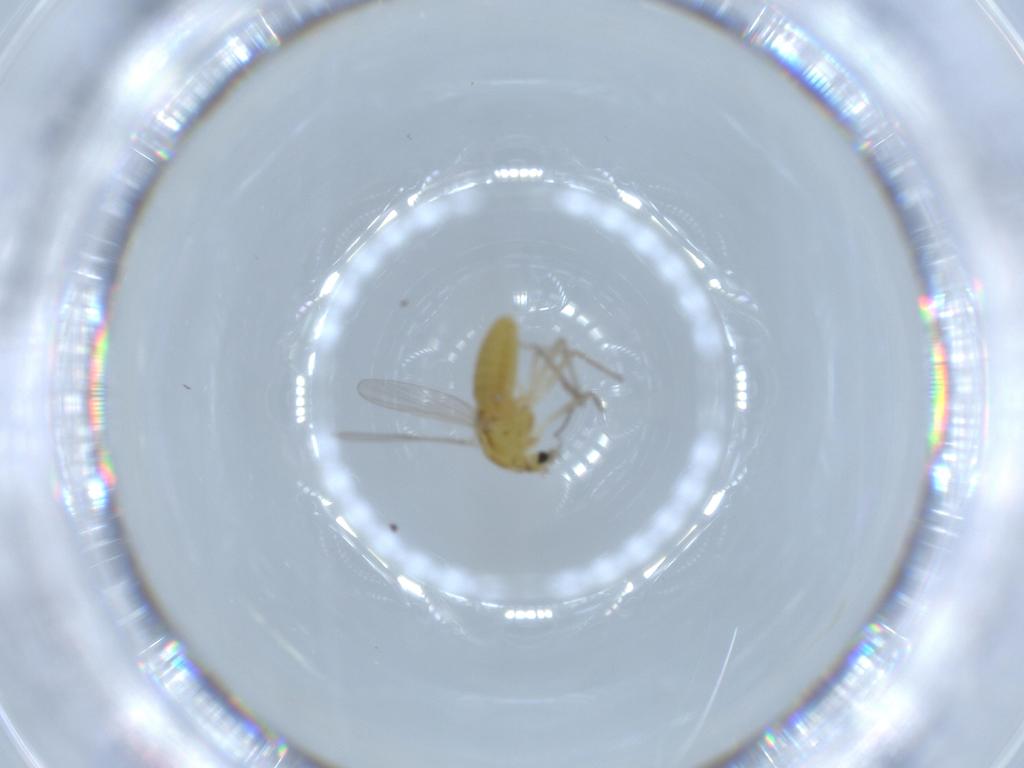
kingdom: Animalia
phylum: Arthropoda
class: Insecta
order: Diptera
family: Chironomidae
